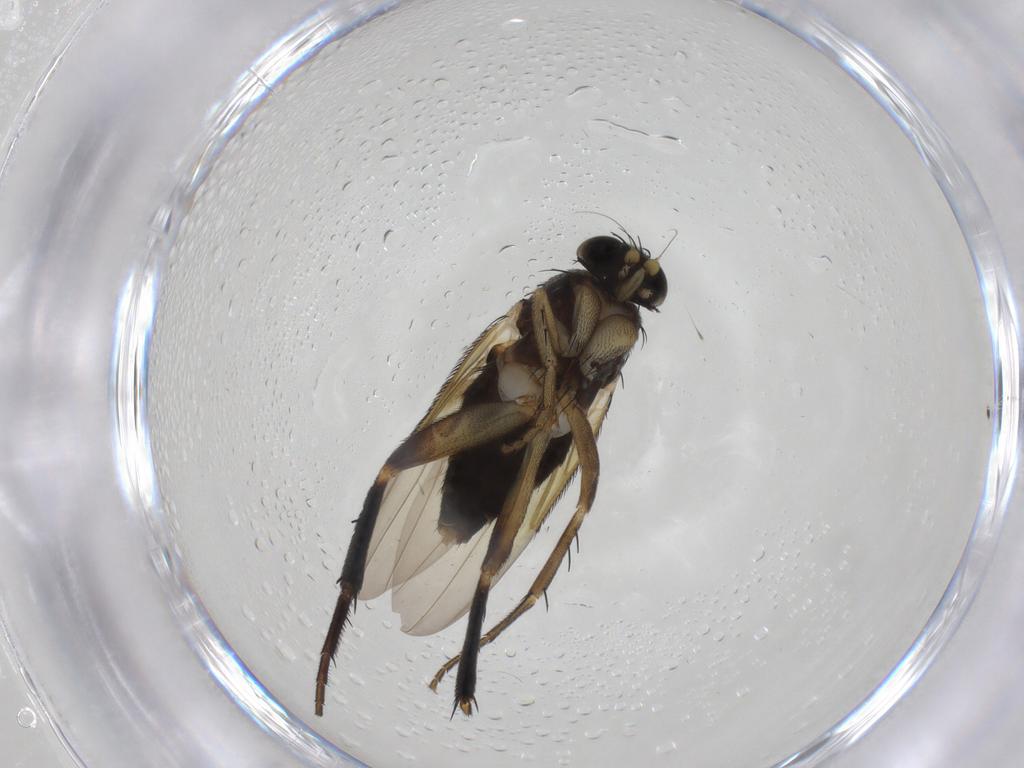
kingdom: Animalia
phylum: Arthropoda
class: Insecta
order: Diptera
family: Phoridae
